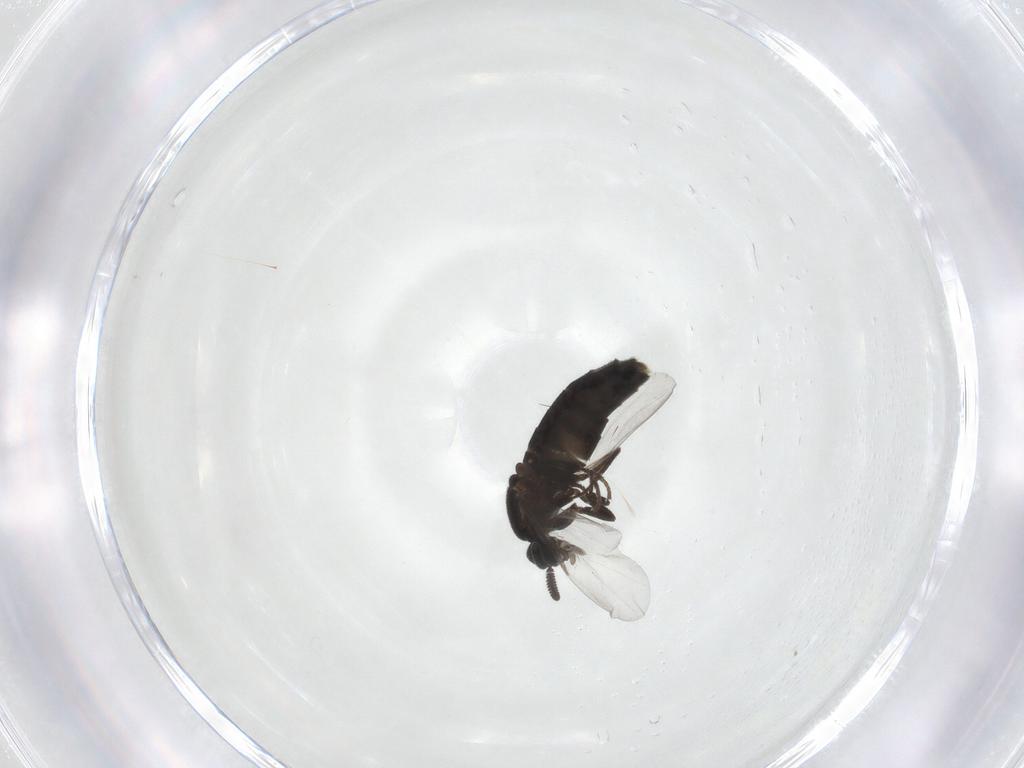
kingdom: Animalia
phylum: Arthropoda
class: Insecta
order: Diptera
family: Scatopsidae
